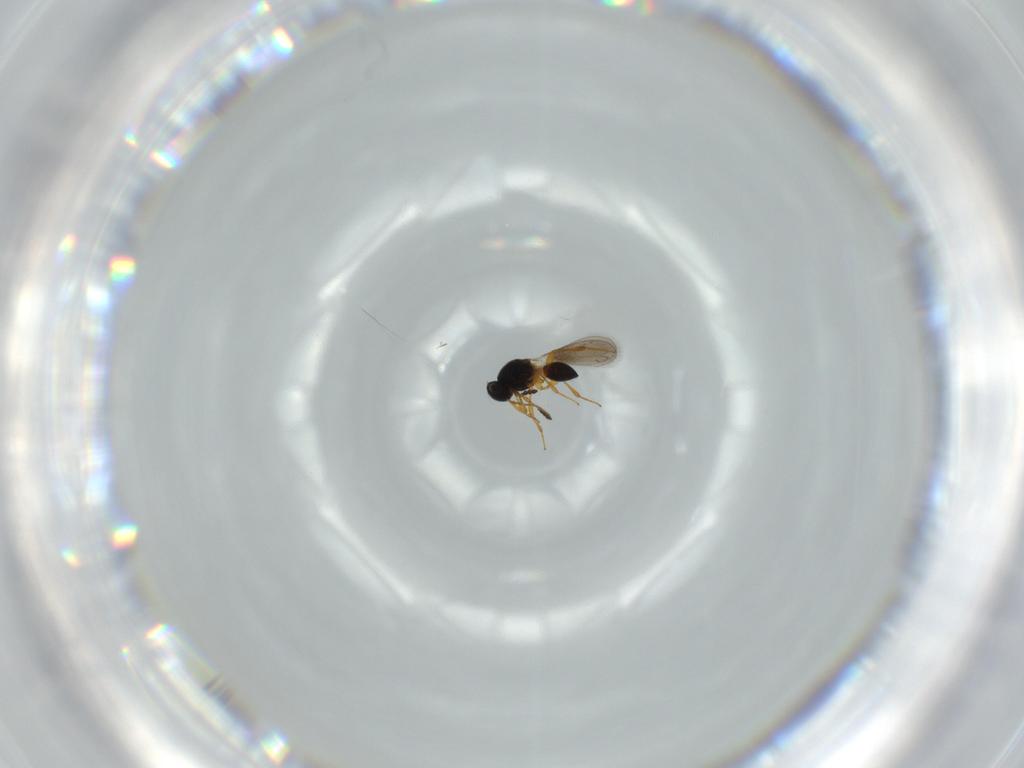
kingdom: Animalia
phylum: Arthropoda
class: Insecta
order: Hymenoptera
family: Platygastridae
